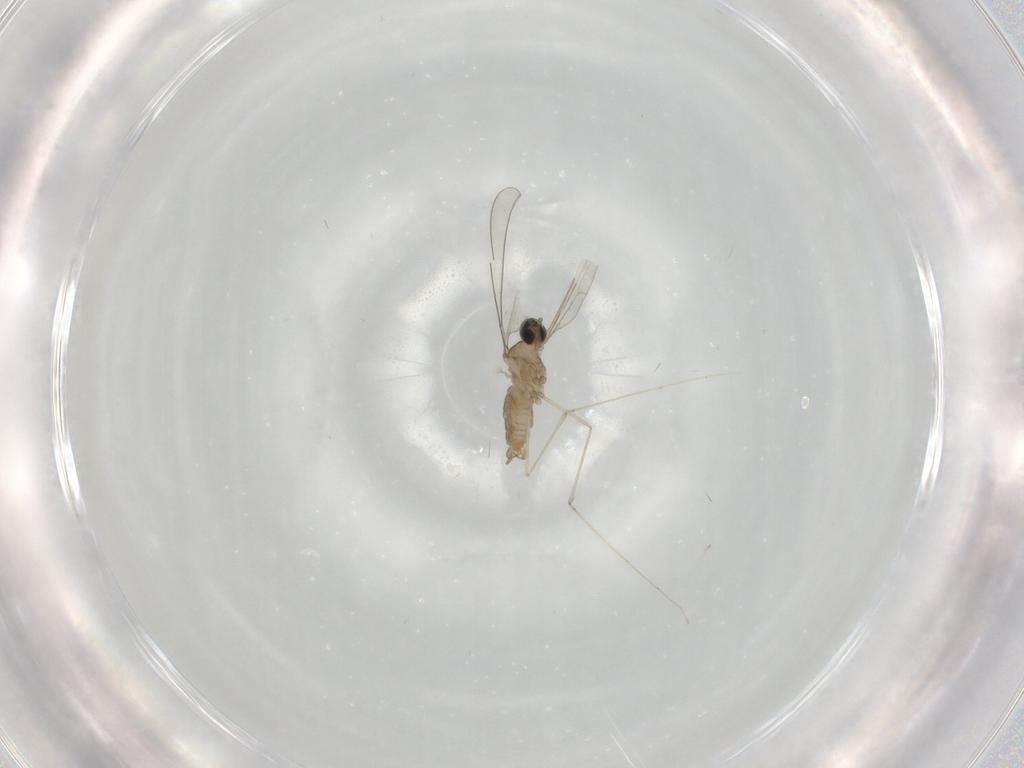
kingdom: Animalia
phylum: Arthropoda
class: Insecta
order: Diptera
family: Cecidomyiidae
